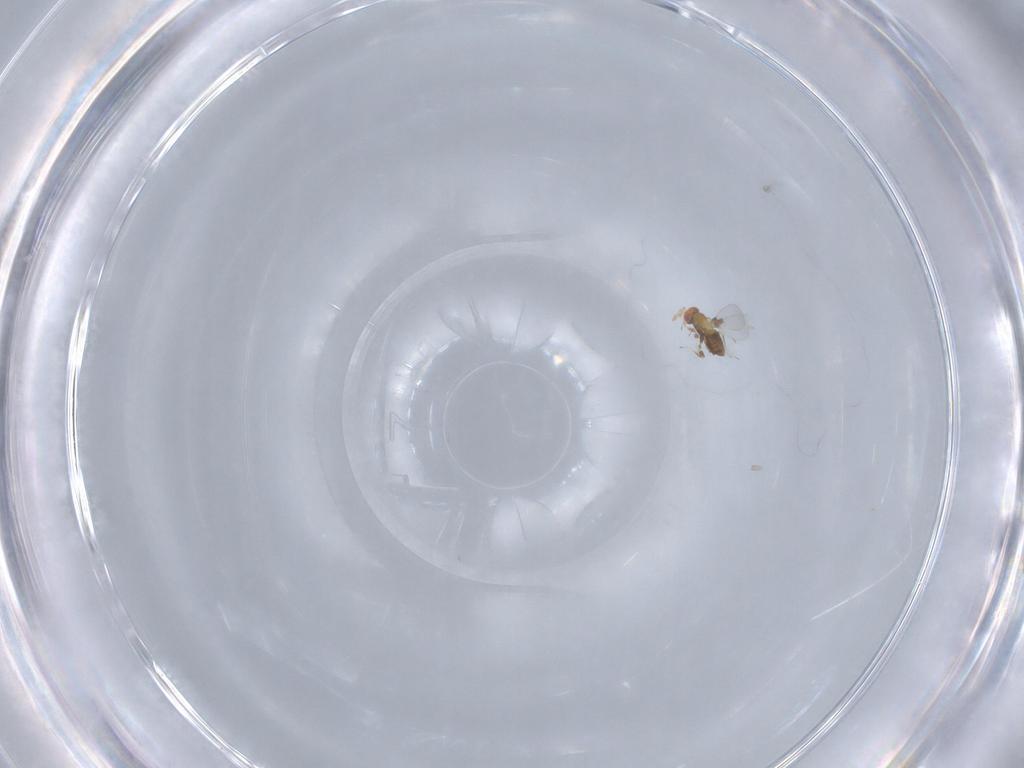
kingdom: Animalia
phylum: Arthropoda
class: Insecta
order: Hymenoptera
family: Trichogrammatidae
